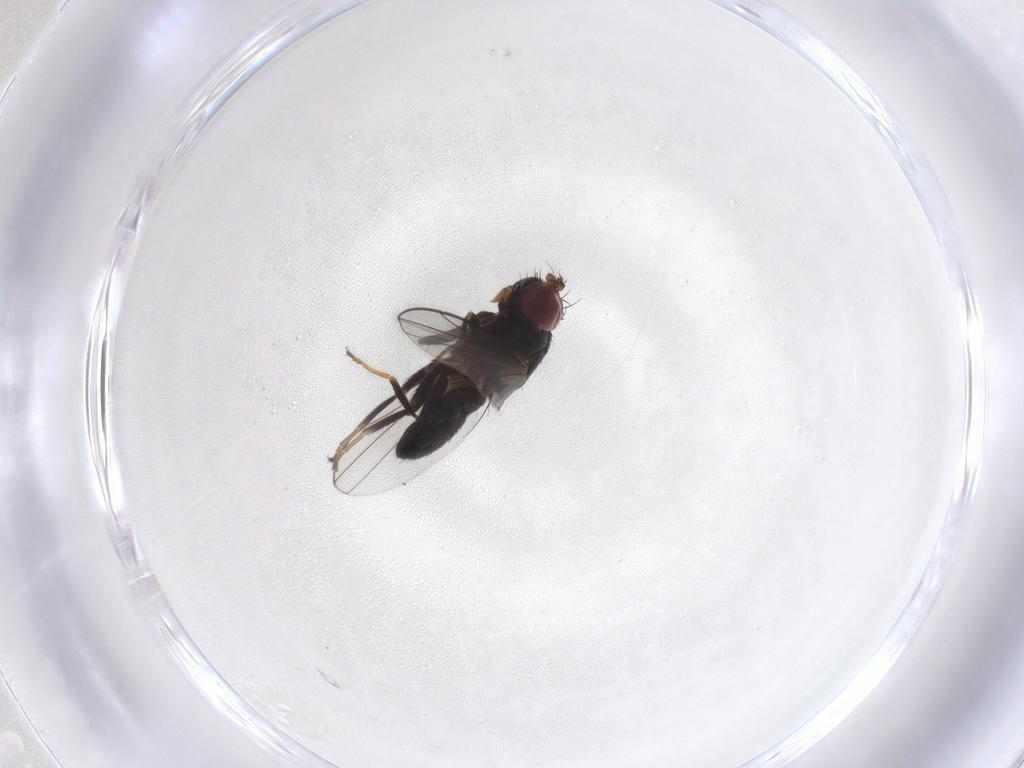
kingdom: Animalia
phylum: Arthropoda
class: Insecta
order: Diptera
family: Ephydridae
